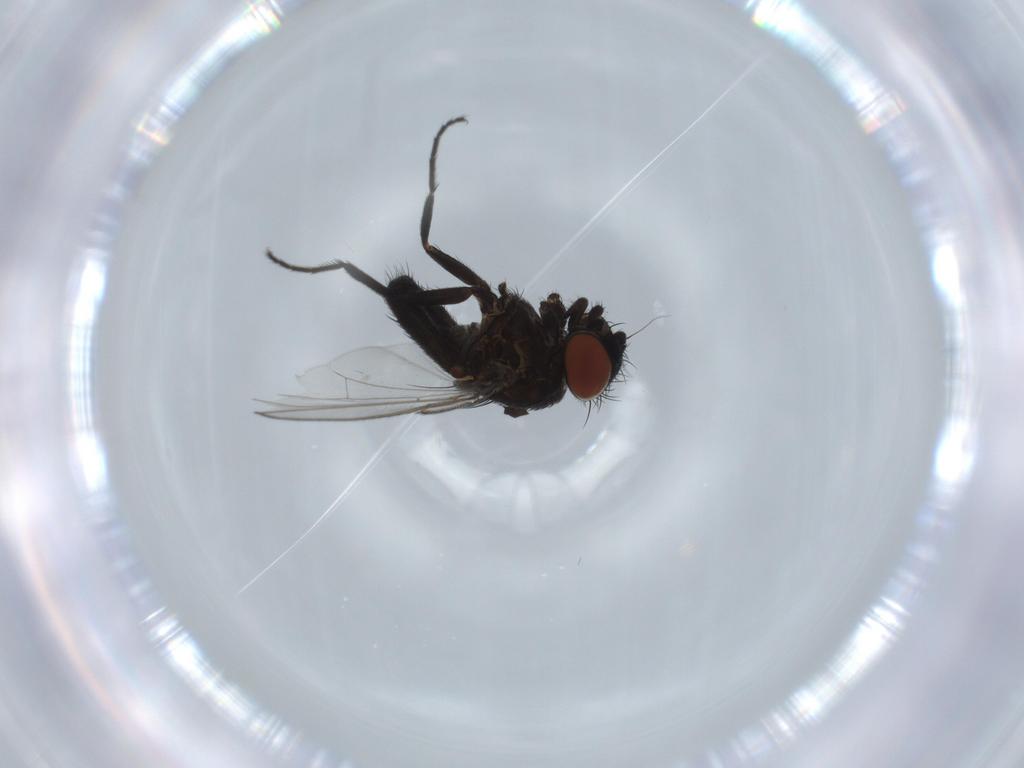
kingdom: Animalia
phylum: Arthropoda
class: Insecta
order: Diptera
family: Milichiidae
